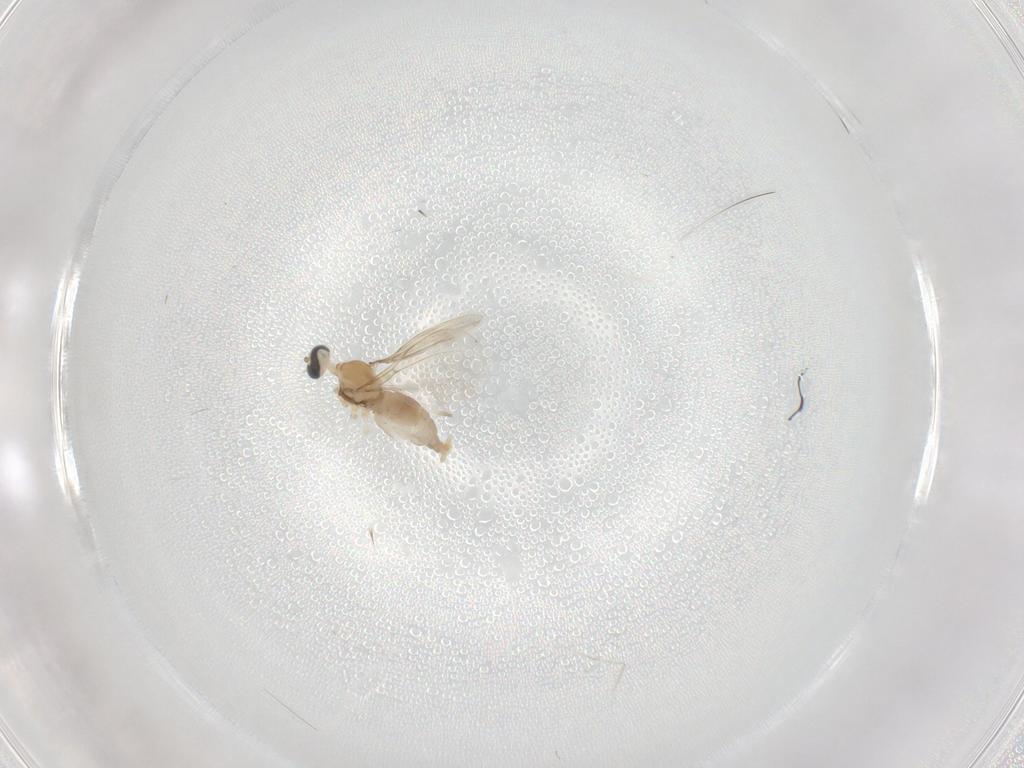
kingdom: Animalia
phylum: Arthropoda
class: Insecta
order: Diptera
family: Cecidomyiidae
